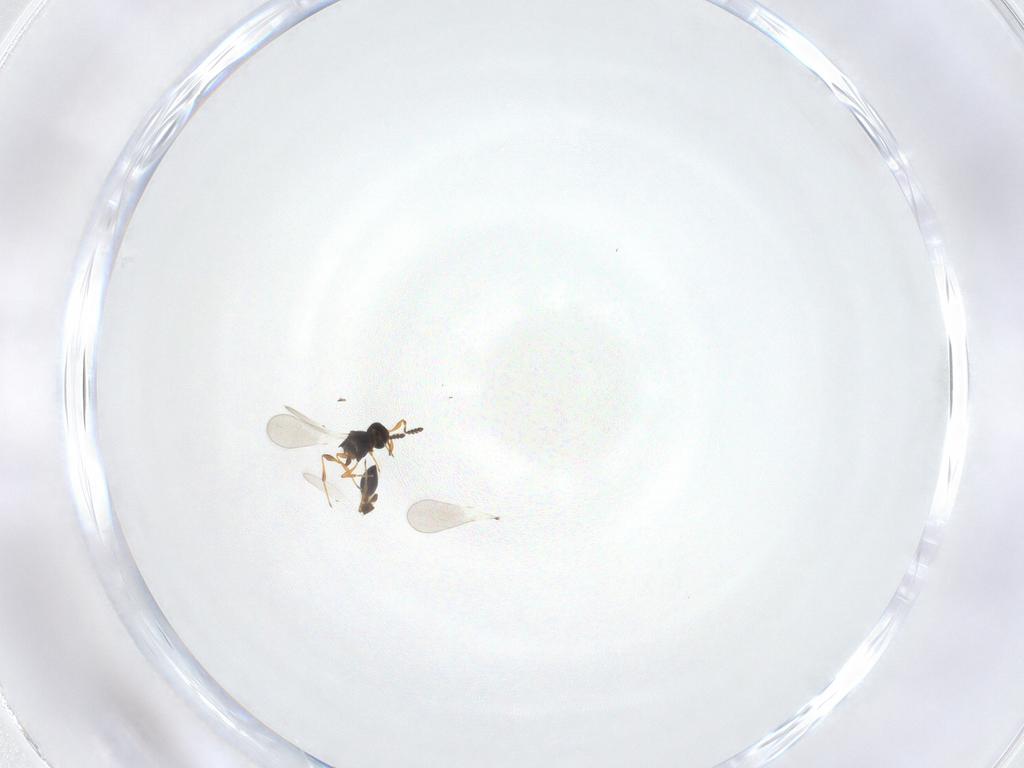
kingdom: Animalia
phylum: Arthropoda
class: Insecta
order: Hymenoptera
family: Platygastridae
